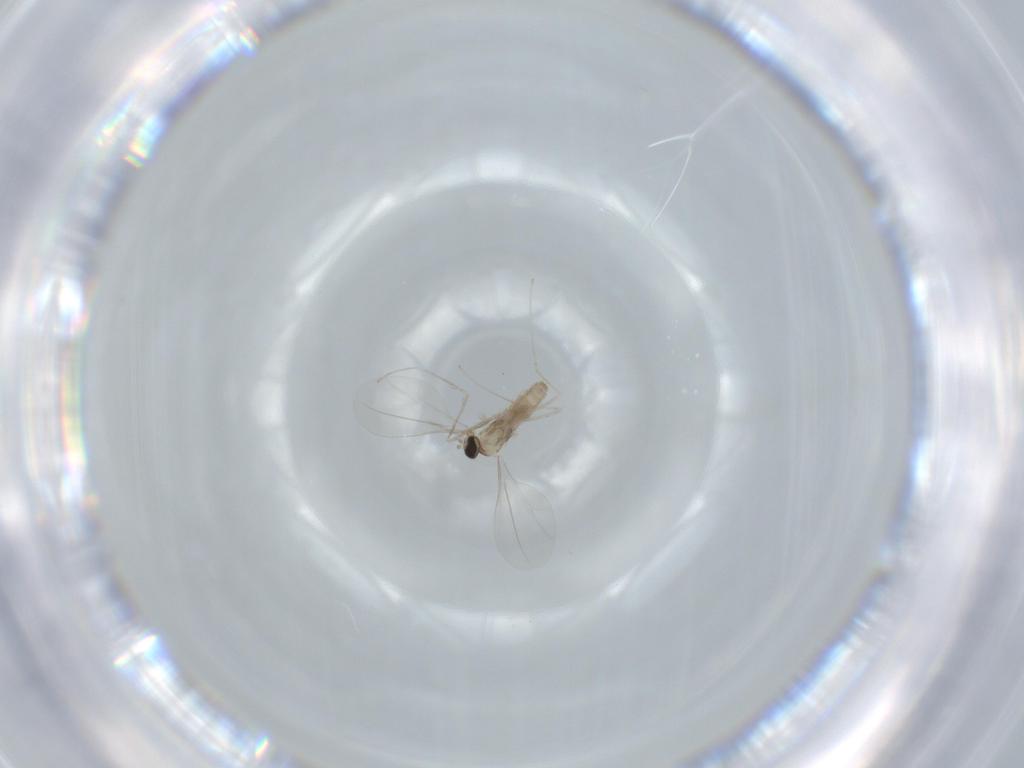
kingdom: Animalia
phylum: Arthropoda
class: Insecta
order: Diptera
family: Cecidomyiidae
